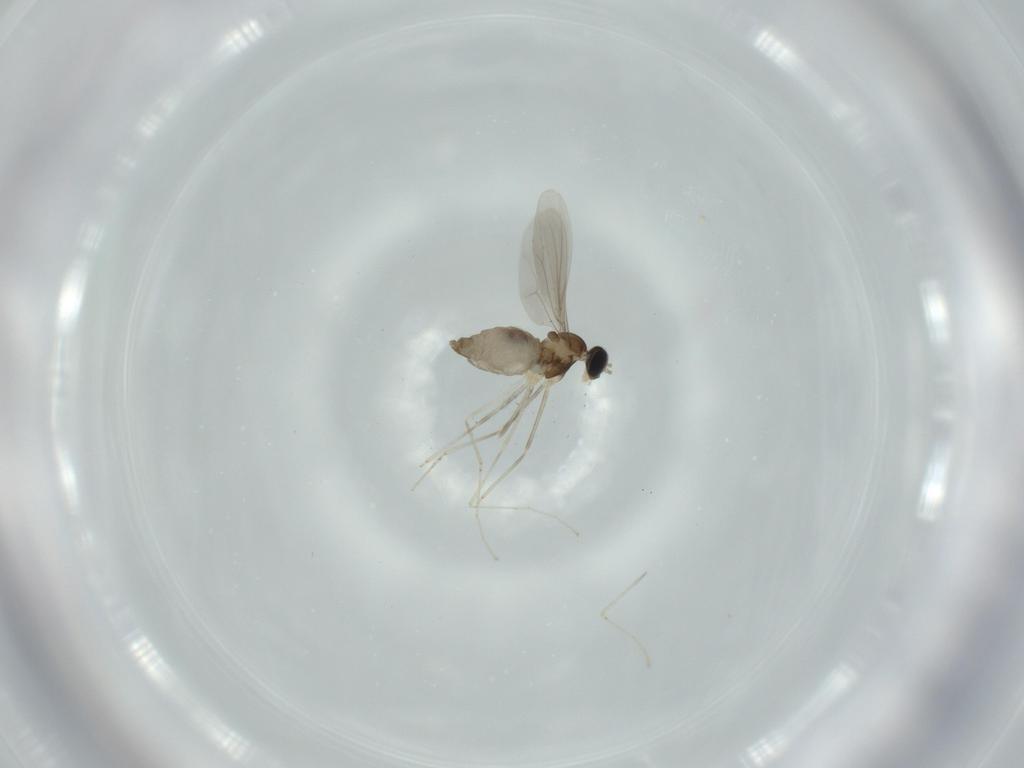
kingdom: Animalia
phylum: Arthropoda
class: Insecta
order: Diptera
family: Cecidomyiidae
